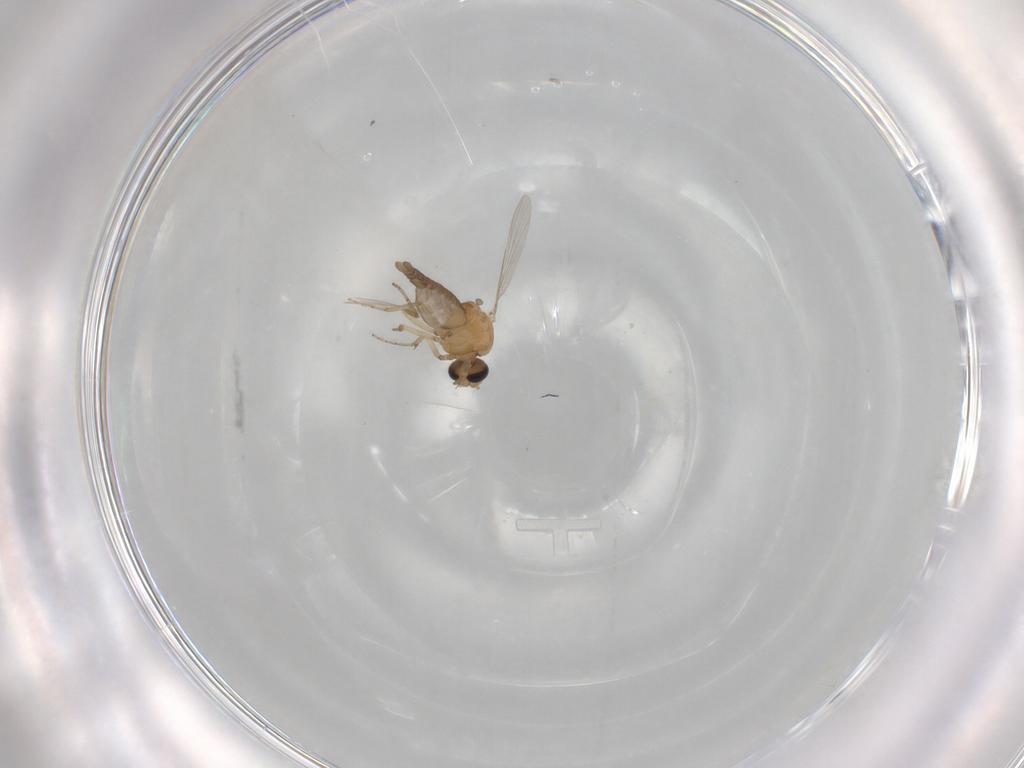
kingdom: Animalia
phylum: Arthropoda
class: Insecta
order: Diptera
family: Ceratopogonidae
